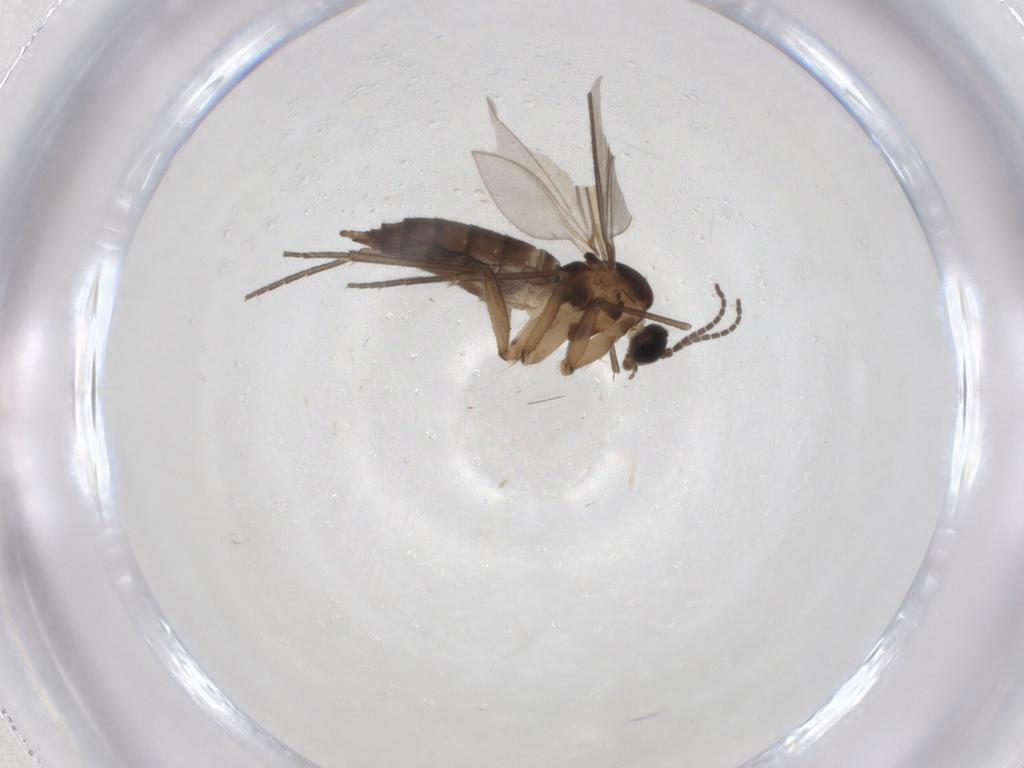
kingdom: Animalia
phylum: Arthropoda
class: Insecta
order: Diptera
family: Sciaridae
